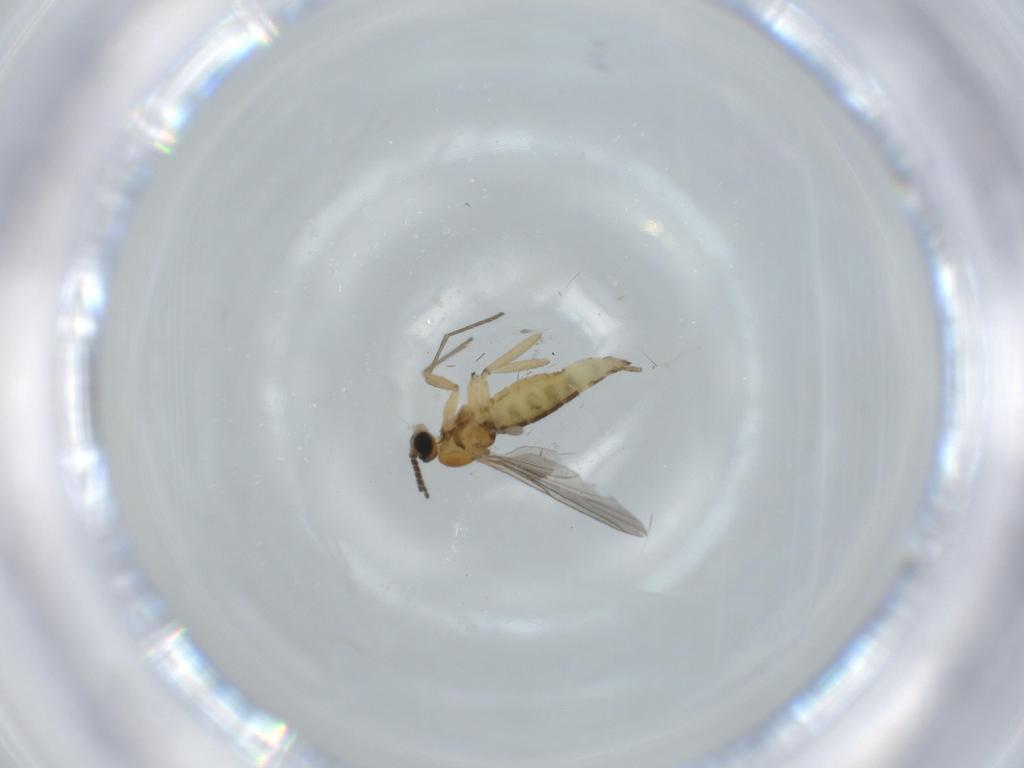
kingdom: Animalia
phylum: Arthropoda
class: Insecta
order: Diptera
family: Sciaridae
